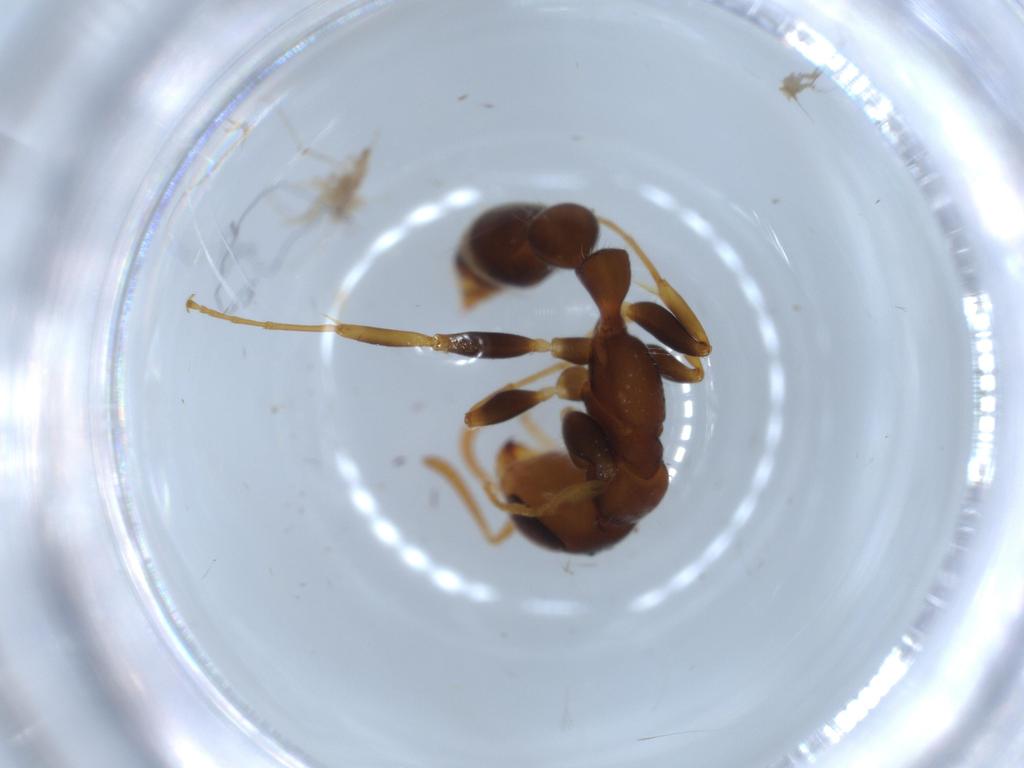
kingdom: Animalia
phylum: Arthropoda
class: Insecta
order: Hymenoptera
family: Formicidae
